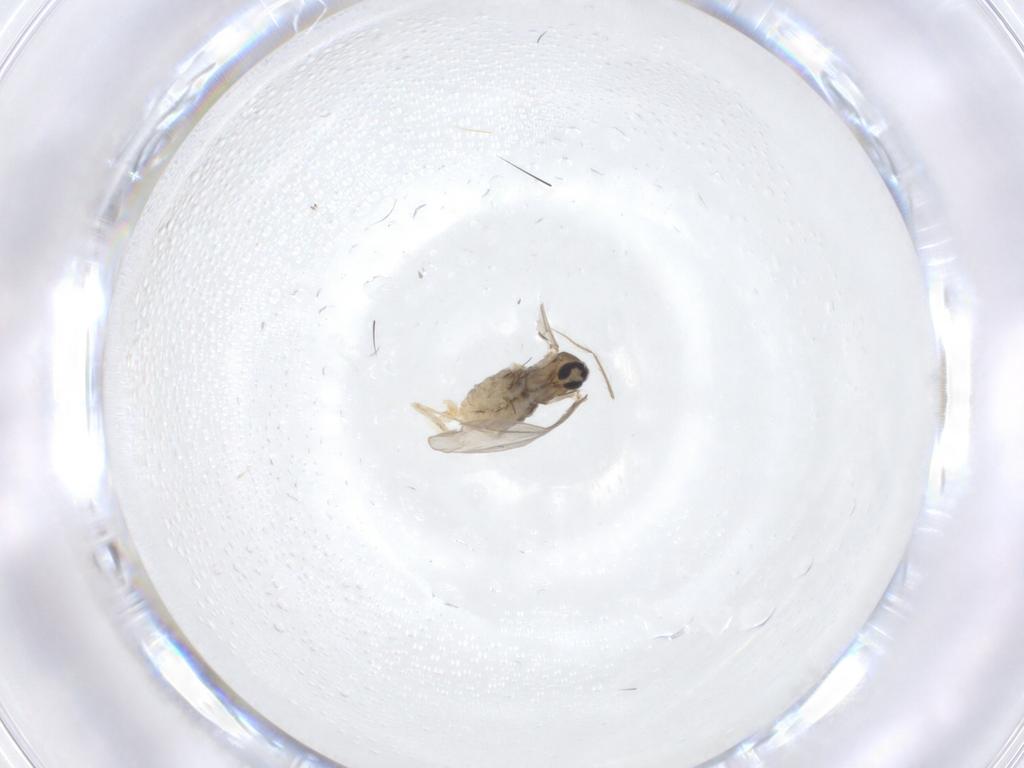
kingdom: Animalia
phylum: Arthropoda
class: Insecta
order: Diptera
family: Cecidomyiidae
